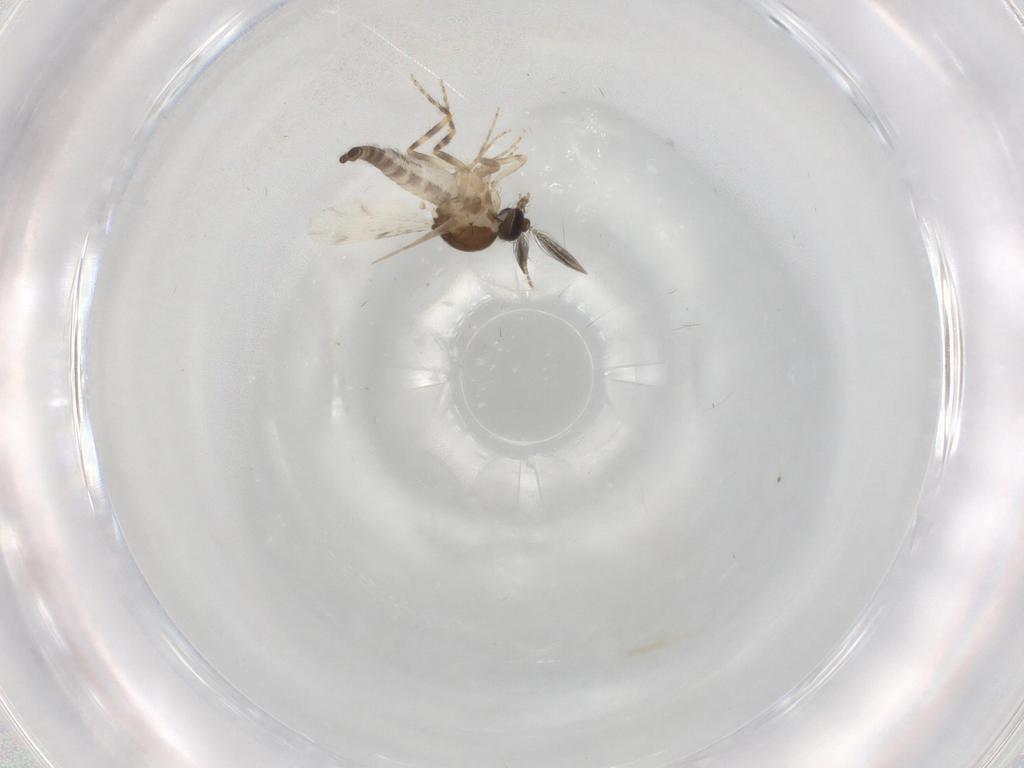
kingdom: Animalia
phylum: Arthropoda
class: Insecta
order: Diptera
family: Ceratopogonidae
